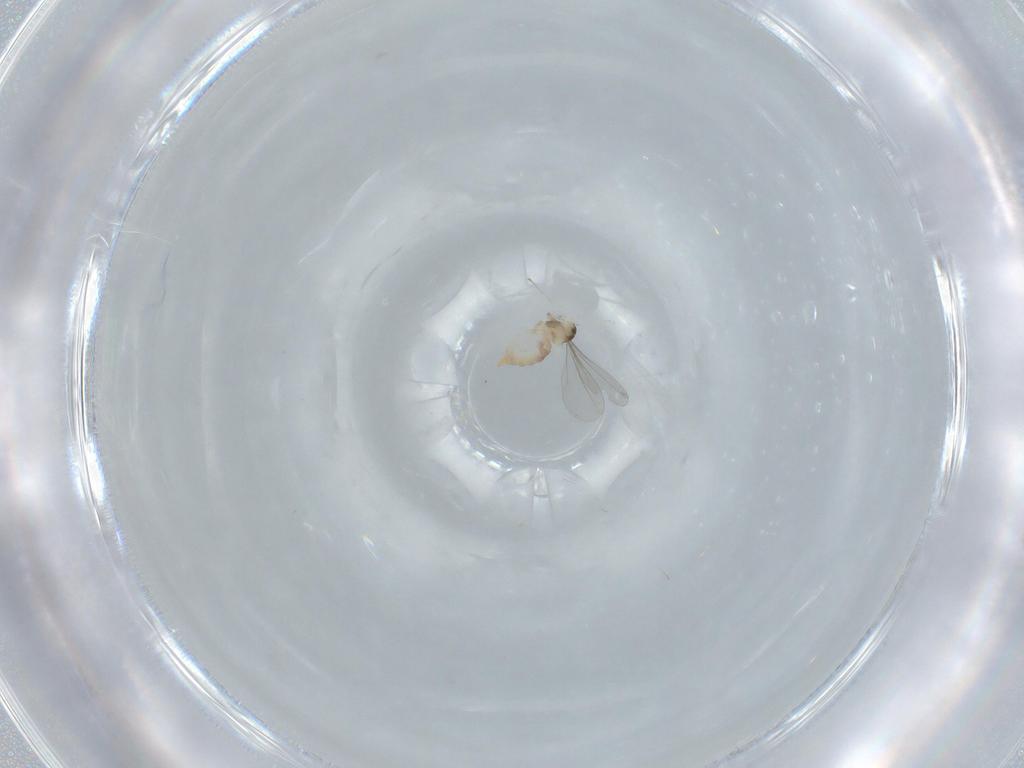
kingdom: Animalia
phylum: Arthropoda
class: Insecta
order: Diptera
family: Cecidomyiidae
